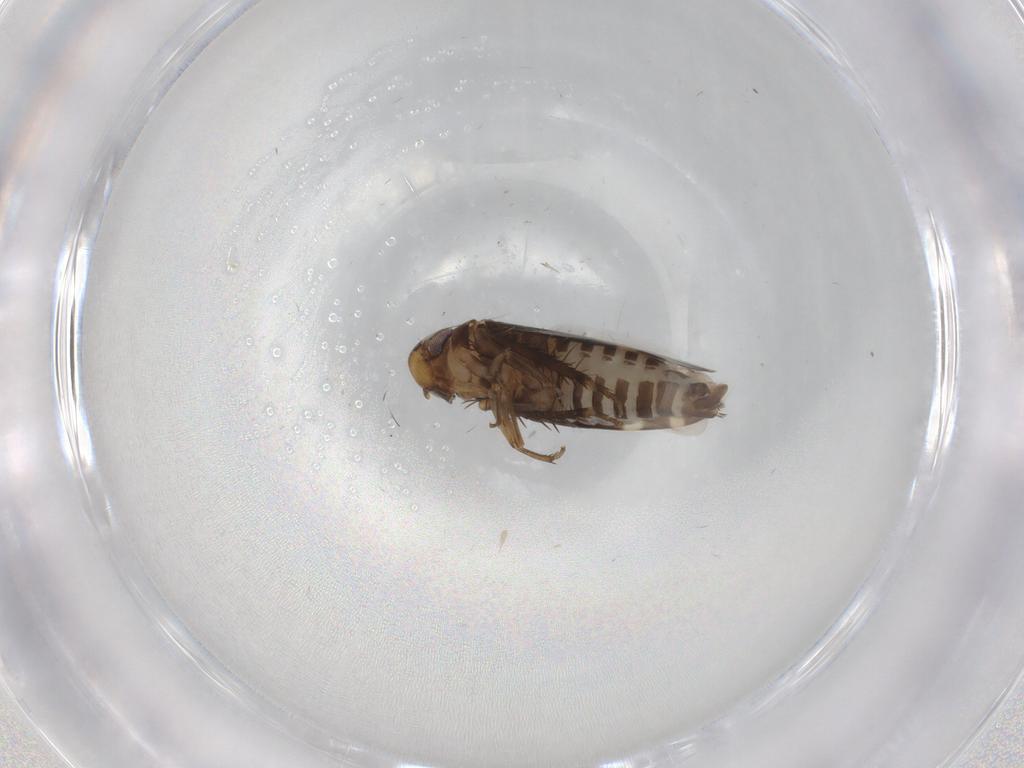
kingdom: Animalia
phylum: Arthropoda
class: Insecta
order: Hemiptera
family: Cicadellidae
